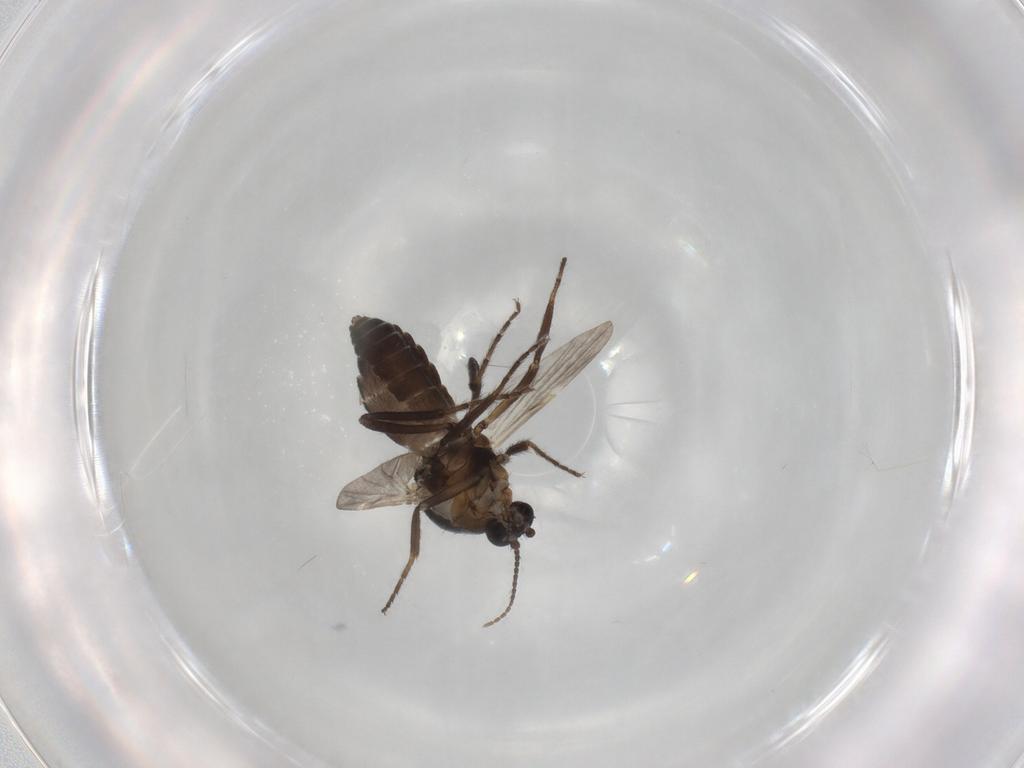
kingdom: Animalia
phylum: Arthropoda
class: Insecta
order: Diptera
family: Ceratopogonidae
